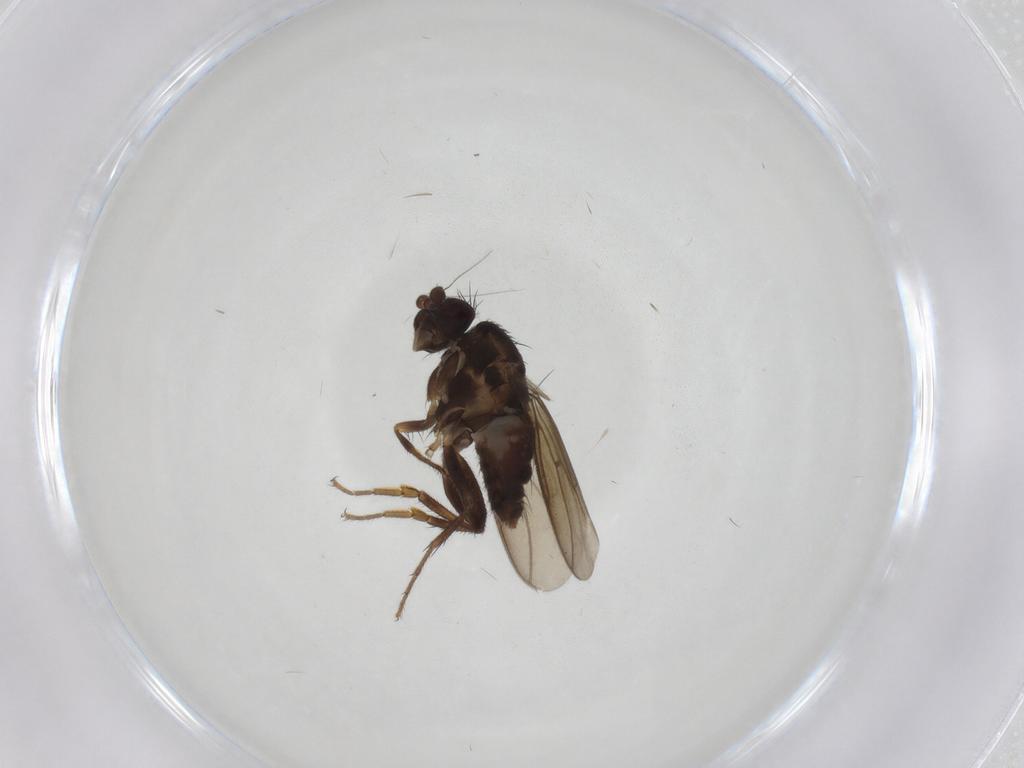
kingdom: Animalia
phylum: Arthropoda
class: Insecta
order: Diptera
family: Sphaeroceridae
